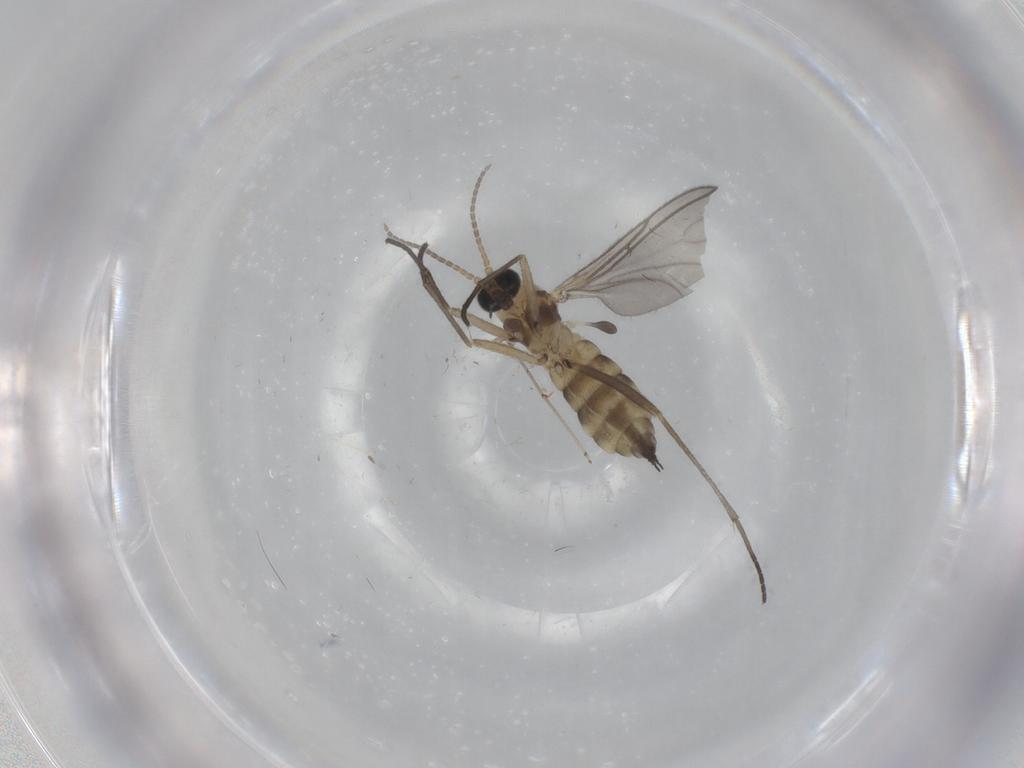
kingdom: Animalia
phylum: Arthropoda
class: Insecta
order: Diptera
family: Sciaridae
